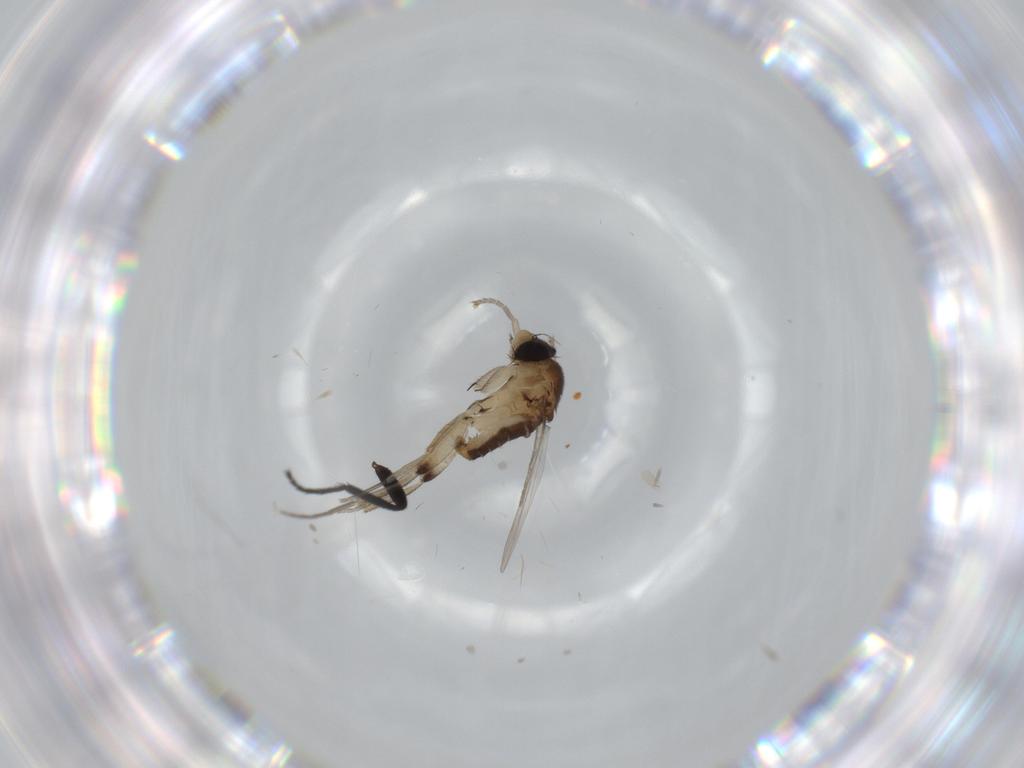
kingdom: Animalia
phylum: Arthropoda
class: Insecta
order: Diptera
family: Phoridae
